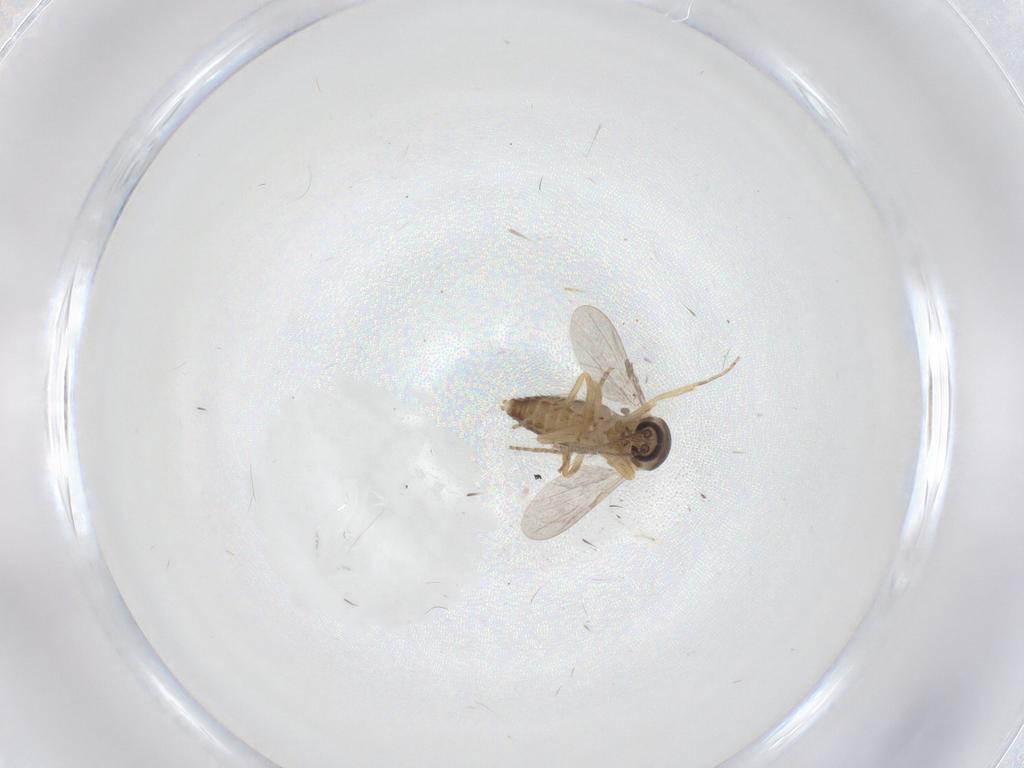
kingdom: Animalia
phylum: Arthropoda
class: Insecta
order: Diptera
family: Ceratopogonidae
